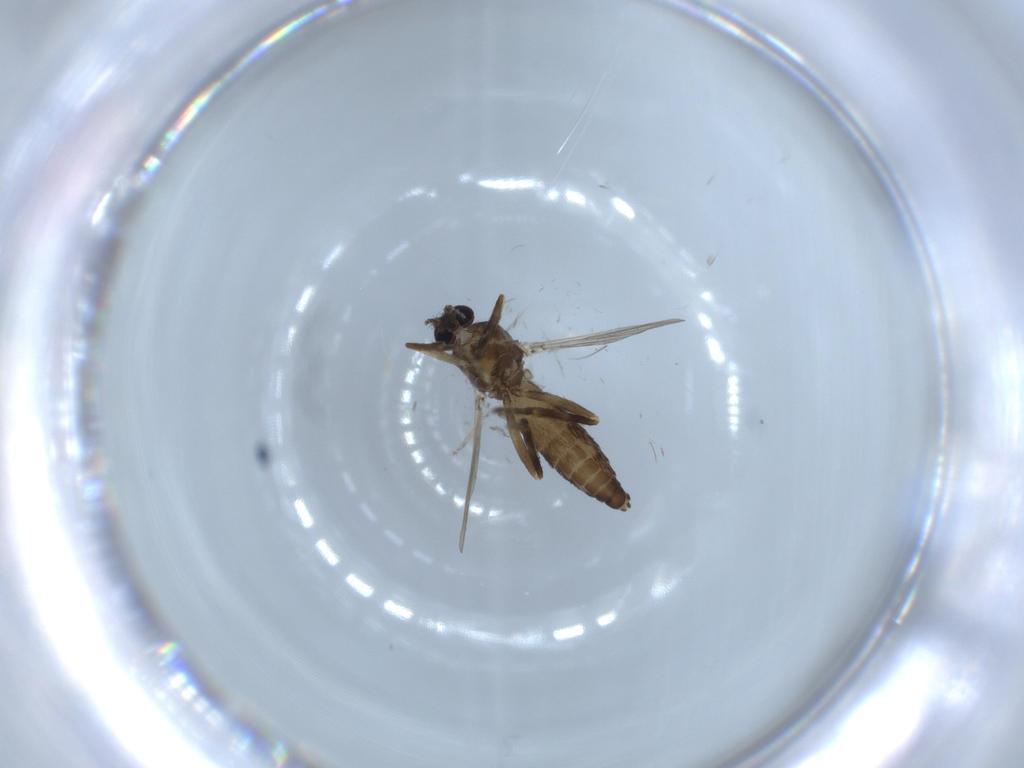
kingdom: Animalia
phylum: Arthropoda
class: Insecta
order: Diptera
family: Ceratopogonidae
